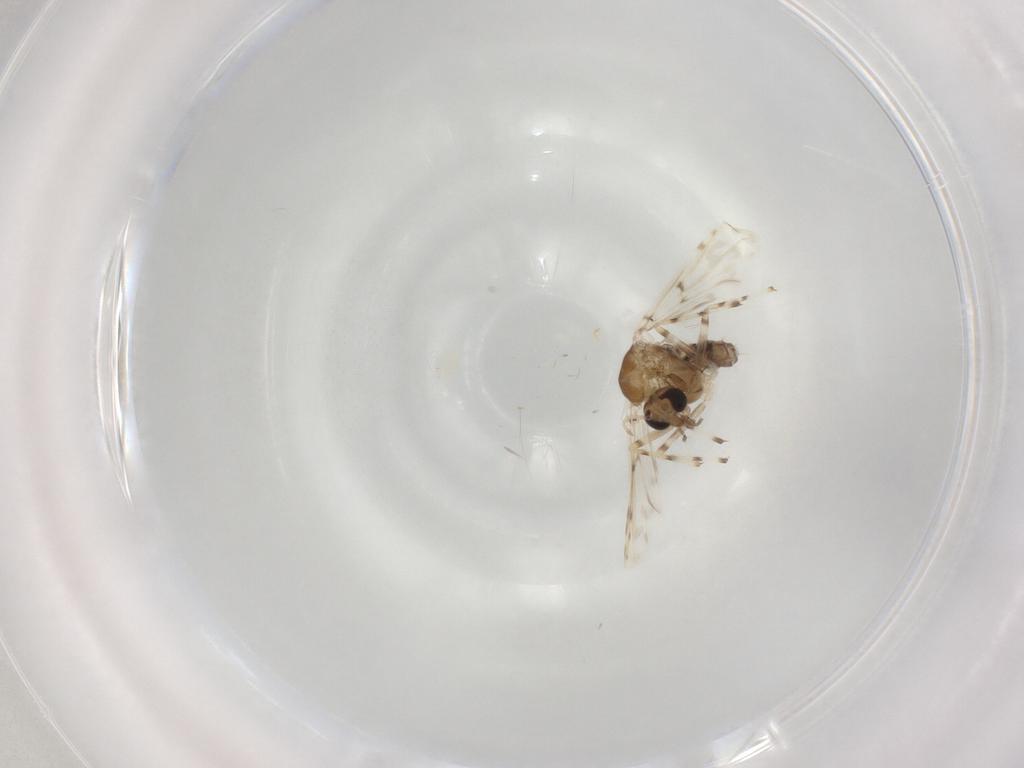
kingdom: Animalia
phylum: Arthropoda
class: Insecta
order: Diptera
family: Chironomidae
